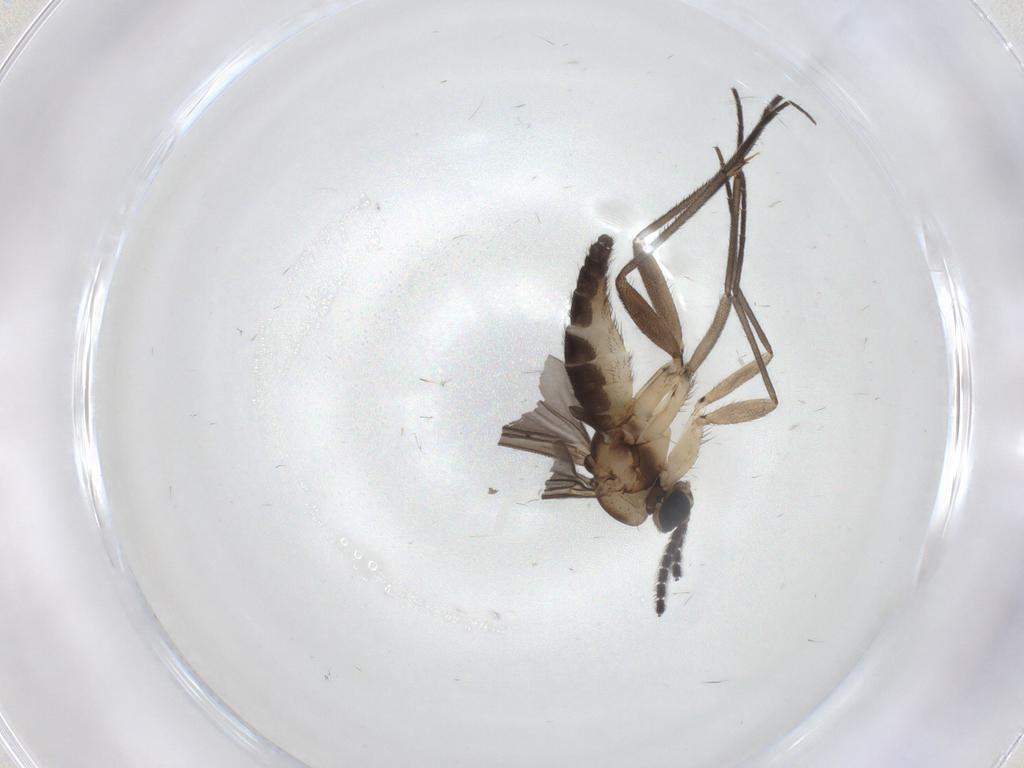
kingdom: Animalia
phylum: Arthropoda
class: Insecta
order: Diptera
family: Sciaridae
